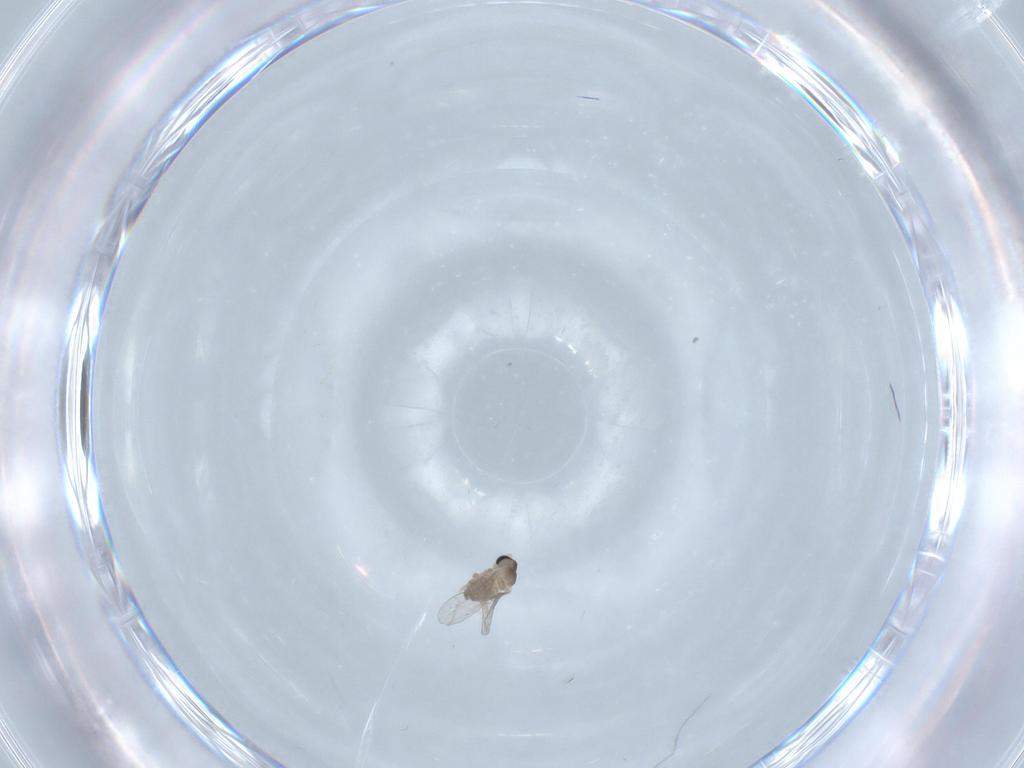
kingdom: Animalia
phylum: Arthropoda
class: Insecta
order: Diptera
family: Cecidomyiidae
